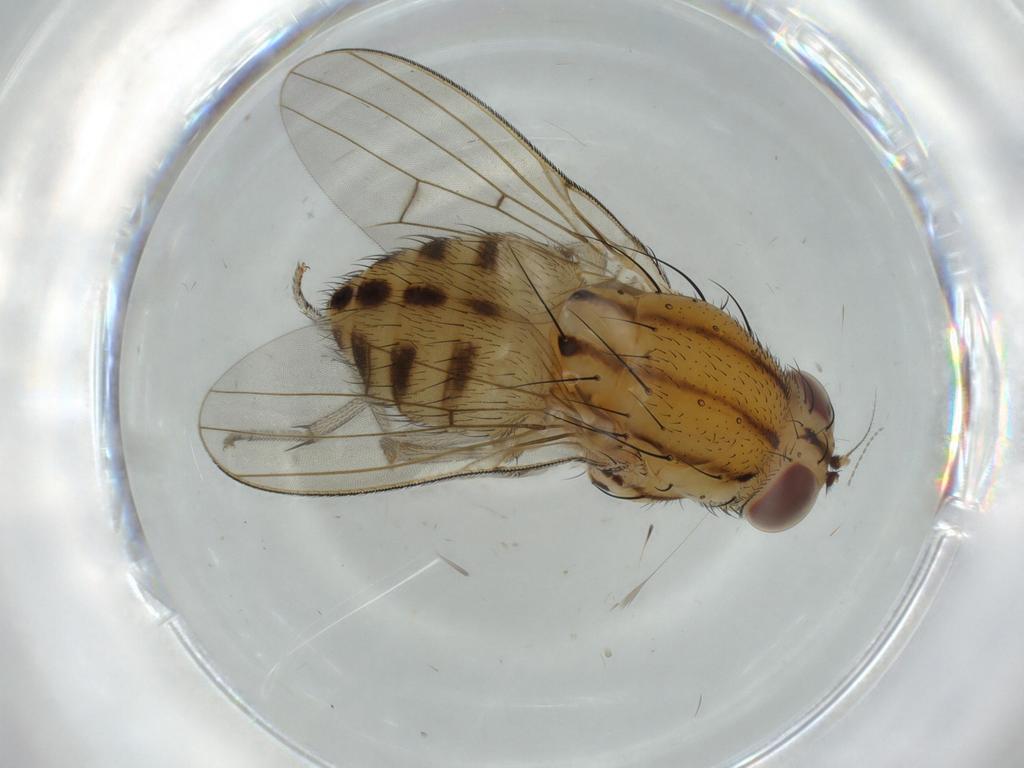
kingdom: Animalia
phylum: Arthropoda
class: Insecta
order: Diptera
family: Lauxaniidae
